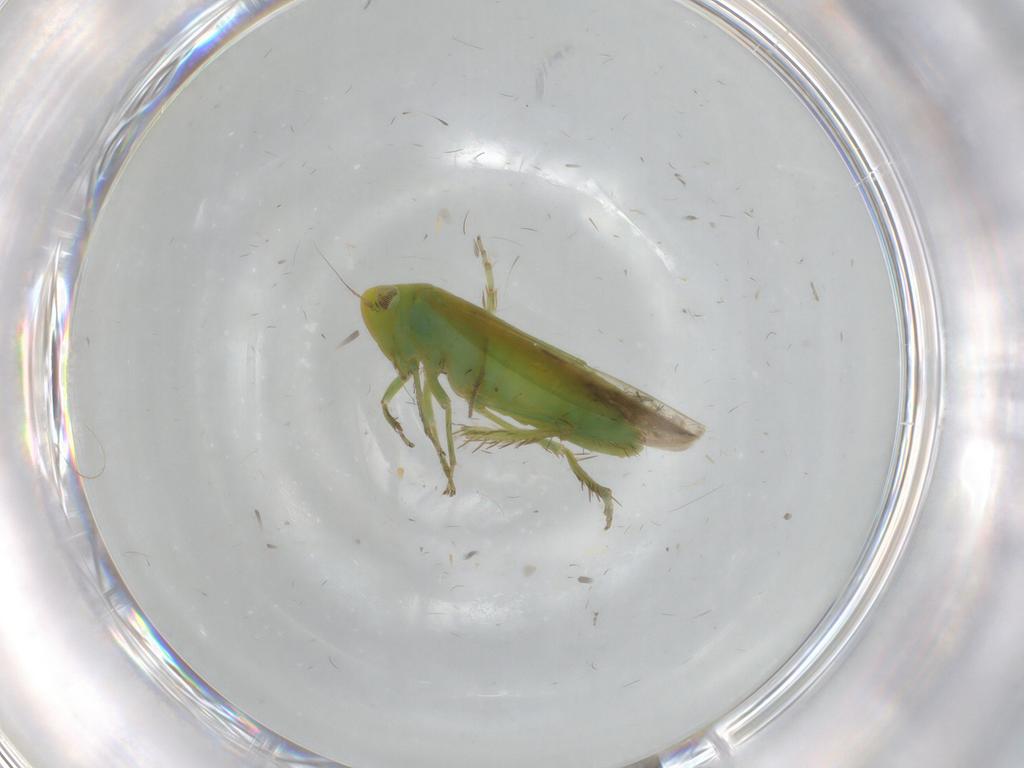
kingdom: Animalia
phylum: Arthropoda
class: Insecta
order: Hemiptera
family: Cicadellidae
